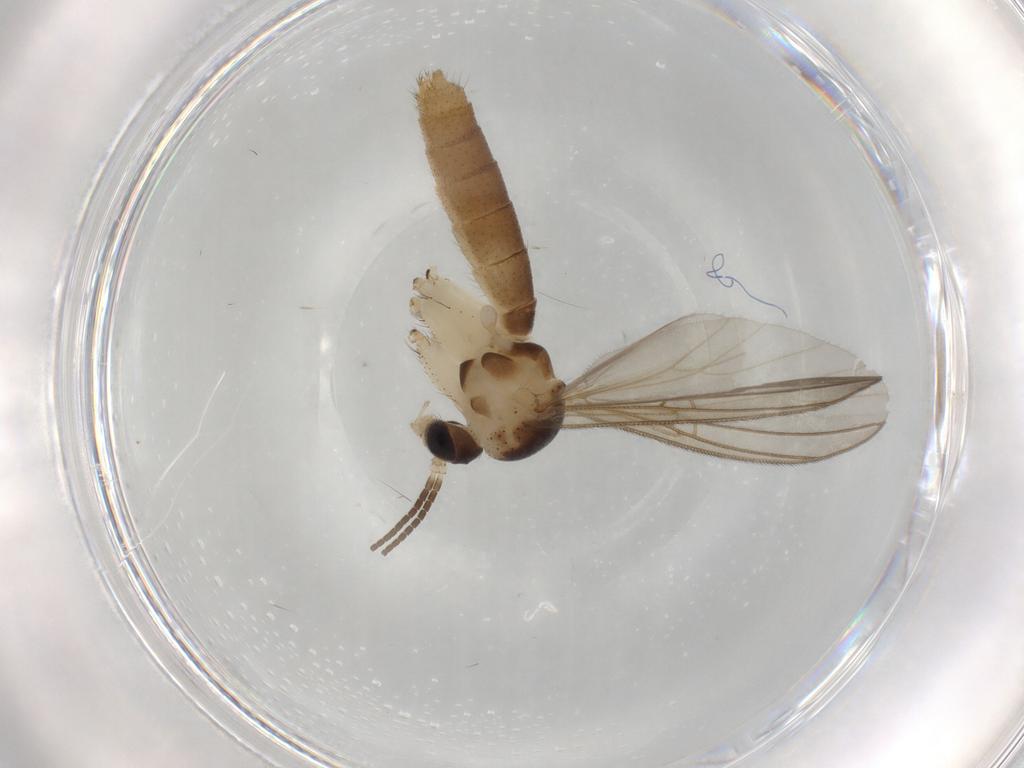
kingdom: Animalia
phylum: Arthropoda
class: Insecta
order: Diptera
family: Mycetophilidae
